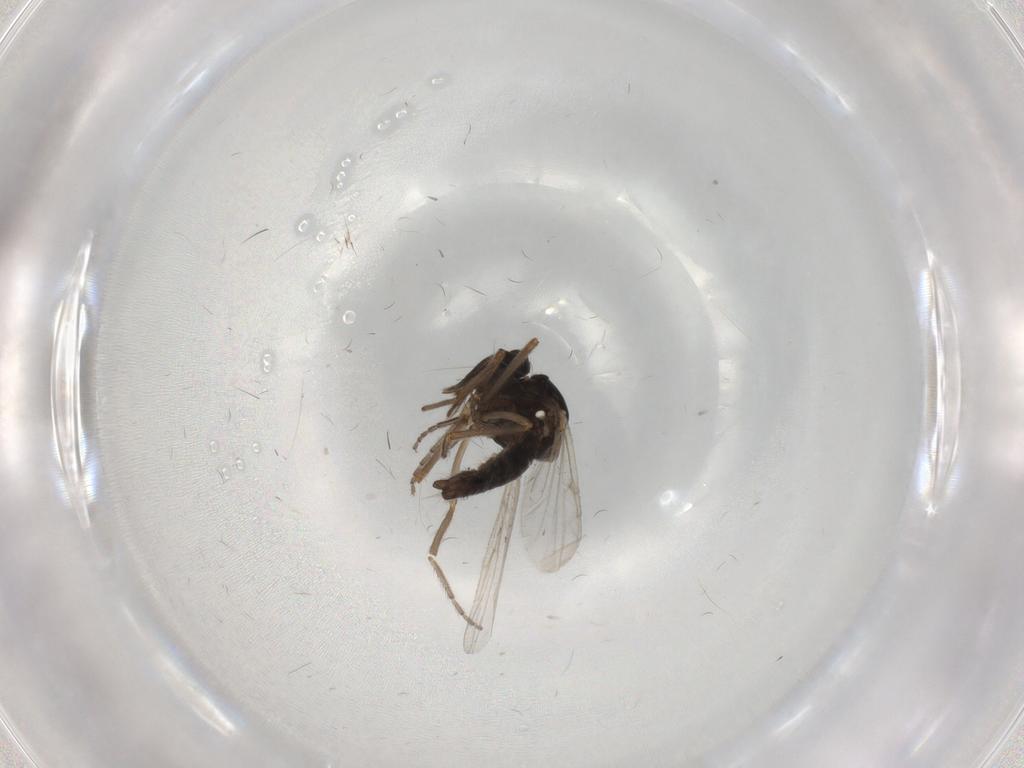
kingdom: Animalia
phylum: Arthropoda
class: Insecta
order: Diptera
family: Ceratopogonidae
